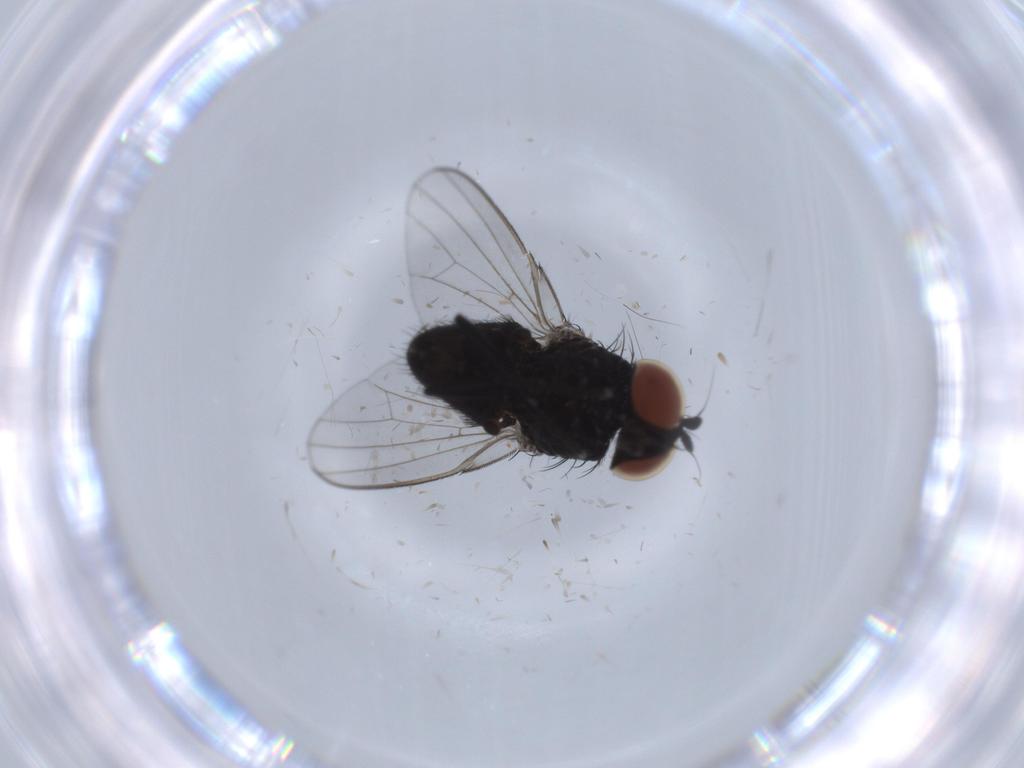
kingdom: Animalia
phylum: Arthropoda
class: Insecta
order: Diptera
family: Milichiidae
